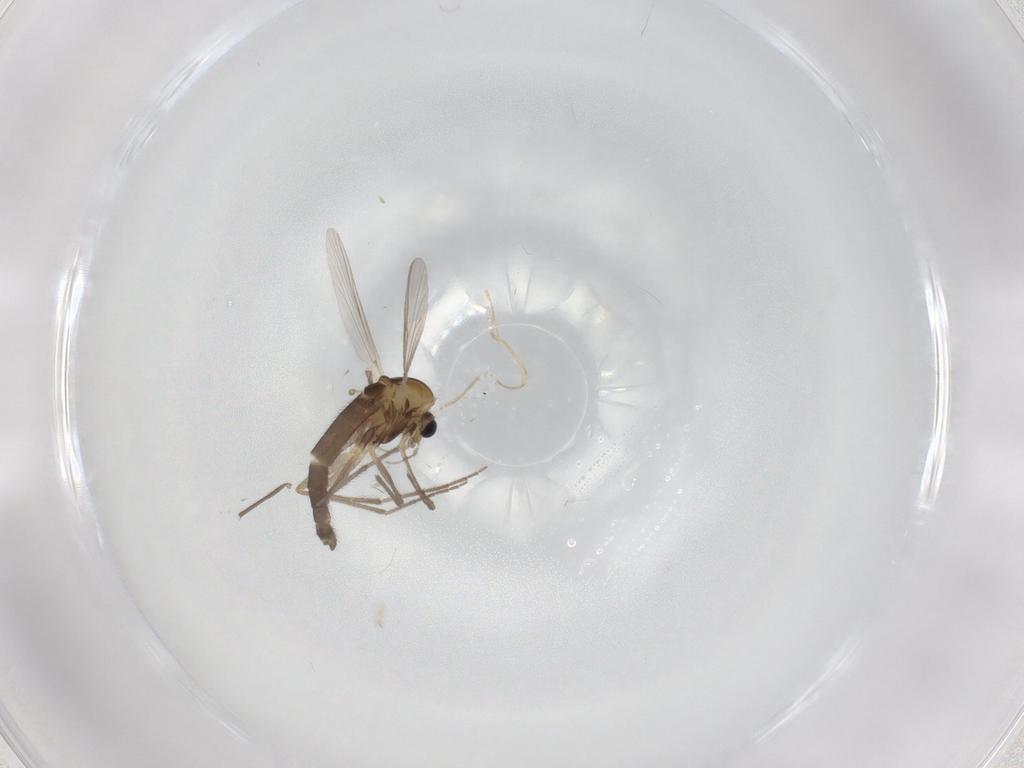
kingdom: Animalia
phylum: Arthropoda
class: Insecta
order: Diptera
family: Chironomidae
